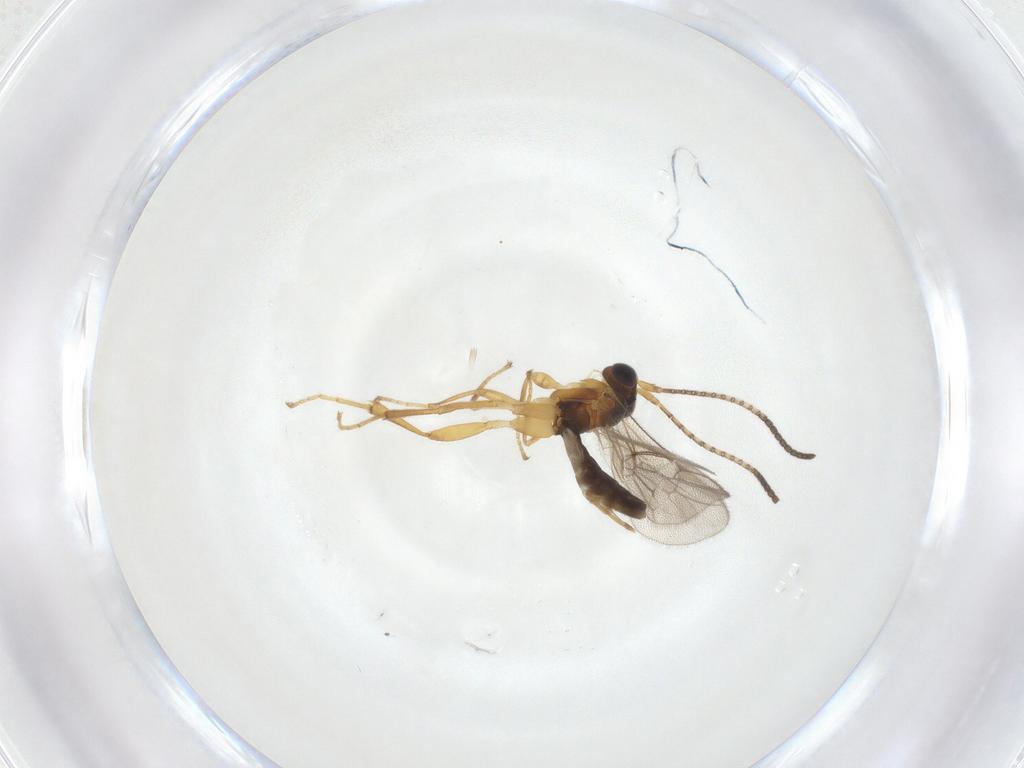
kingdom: Animalia
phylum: Arthropoda
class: Insecta
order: Hymenoptera
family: Ichneumonidae
